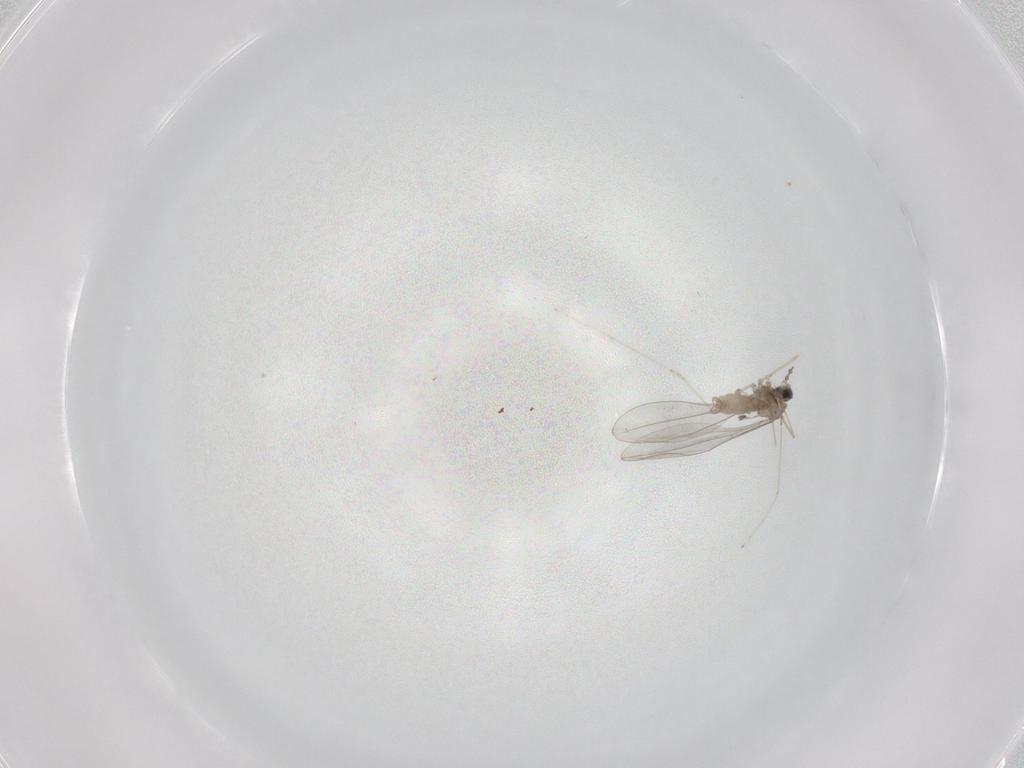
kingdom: Animalia
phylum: Arthropoda
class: Insecta
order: Diptera
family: Cecidomyiidae
